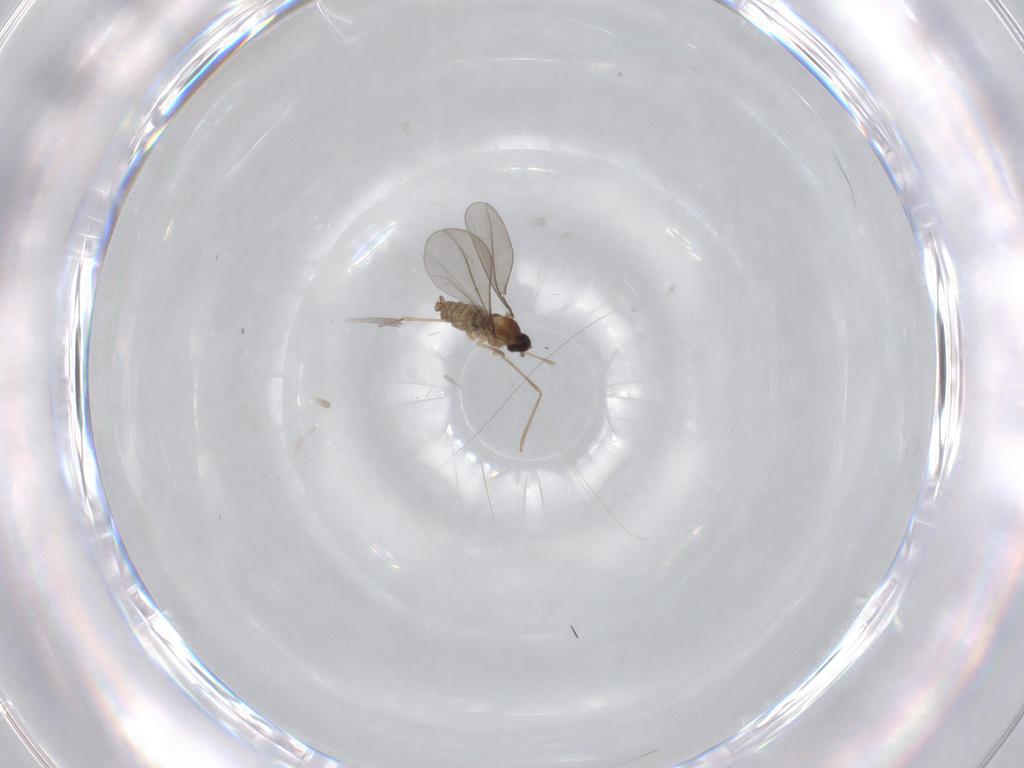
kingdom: Animalia
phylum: Arthropoda
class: Insecta
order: Diptera
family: Cecidomyiidae
